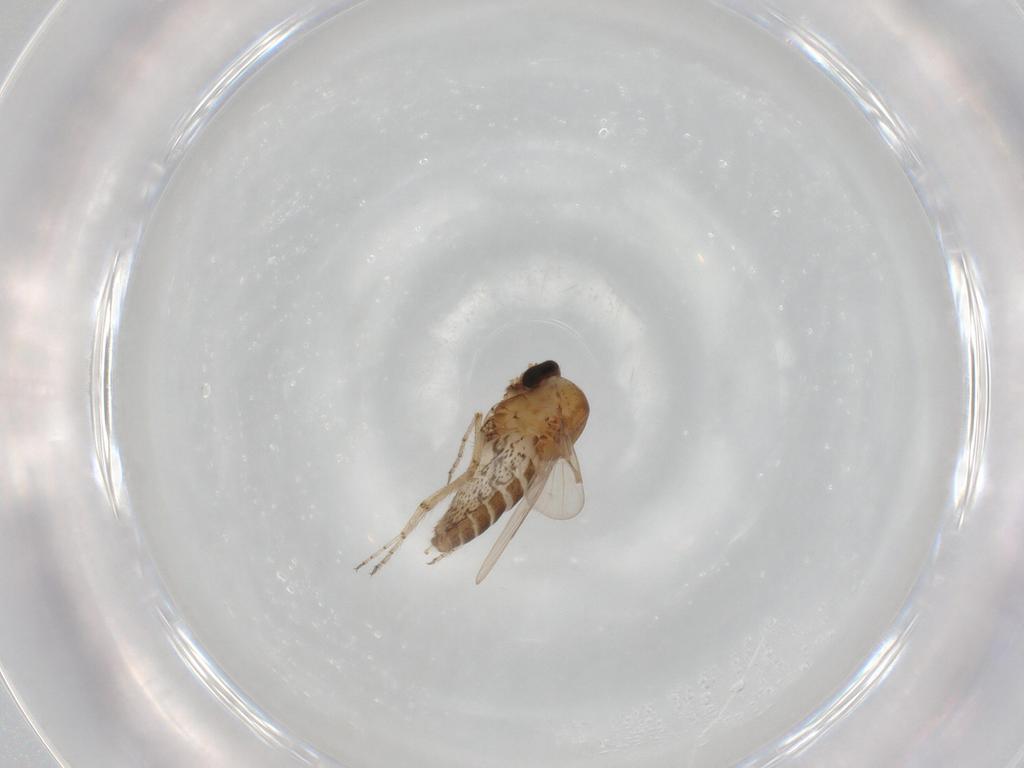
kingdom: Animalia
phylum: Arthropoda
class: Insecta
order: Diptera
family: Ceratopogonidae
